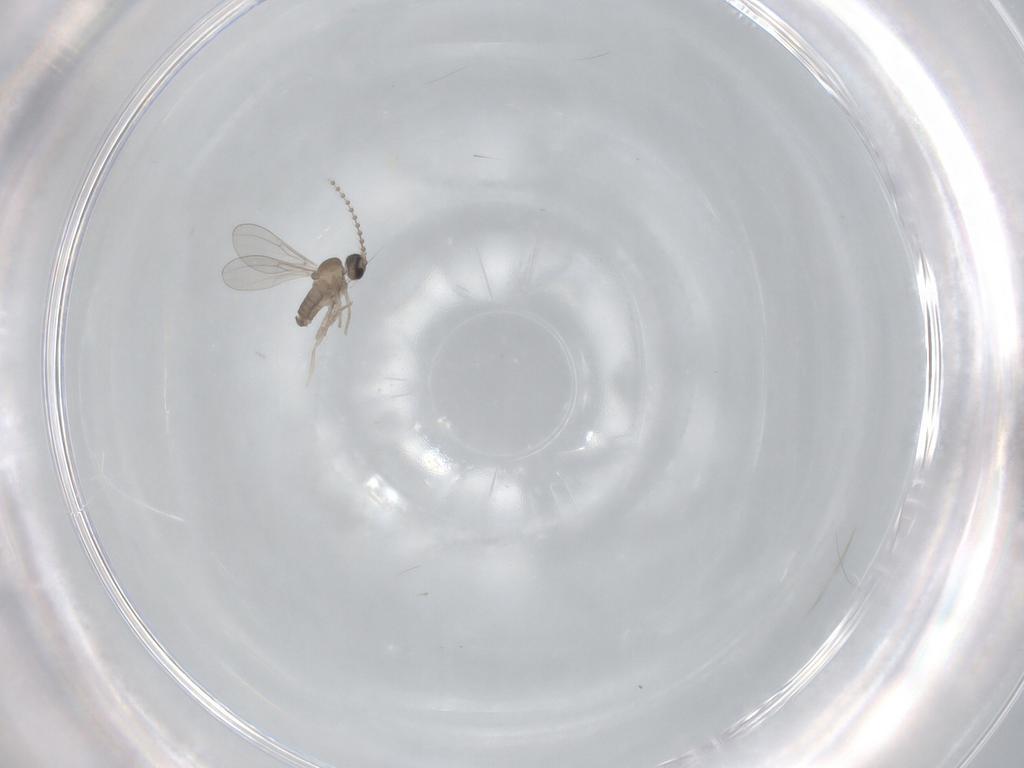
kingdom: Animalia
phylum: Arthropoda
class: Insecta
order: Diptera
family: Cecidomyiidae
